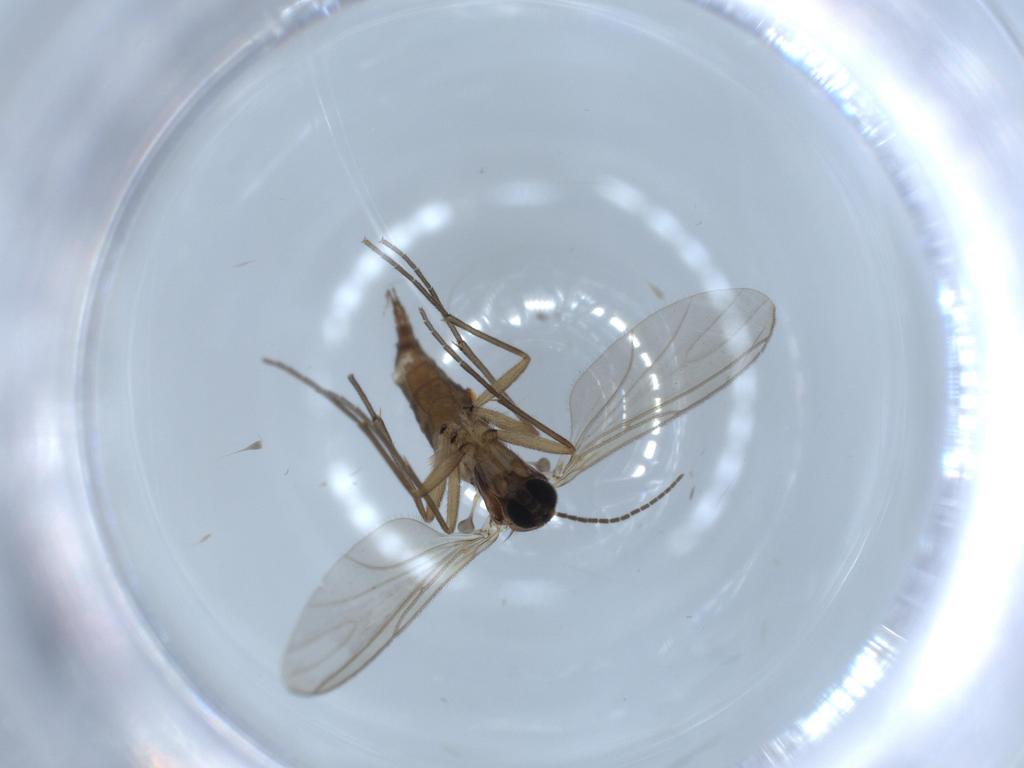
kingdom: Animalia
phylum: Arthropoda
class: Insecta
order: Diptera
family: Sciaridae
